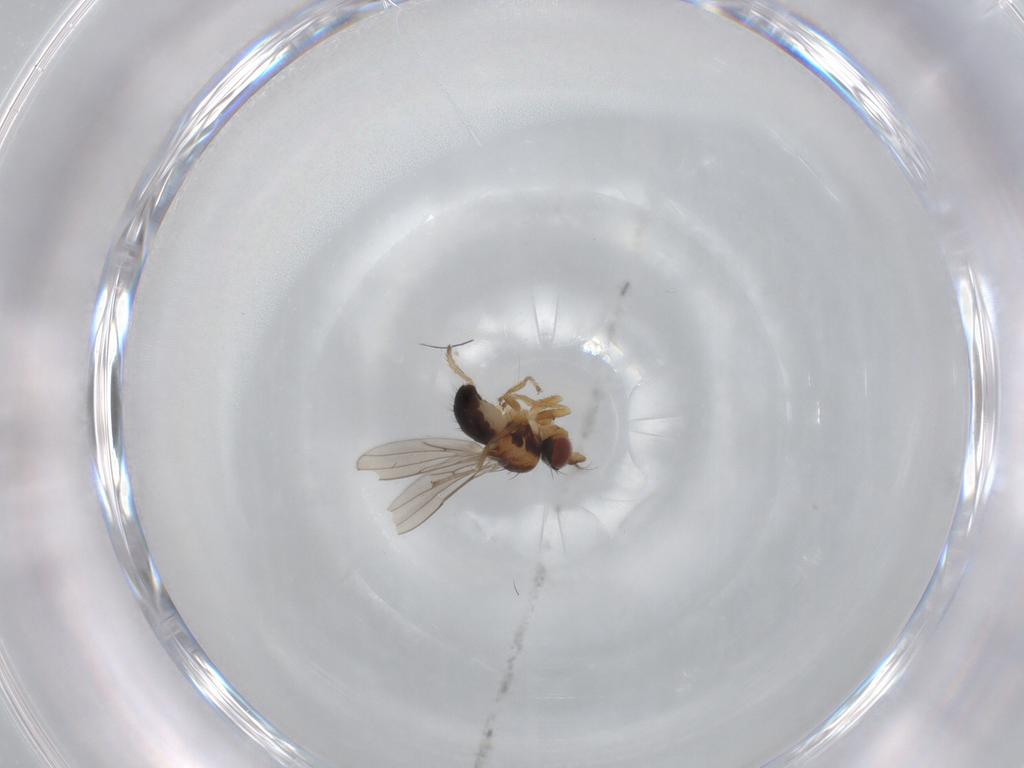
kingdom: Animalia
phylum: Arthropoda
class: Insecta
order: Diptera
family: Ephydridae
